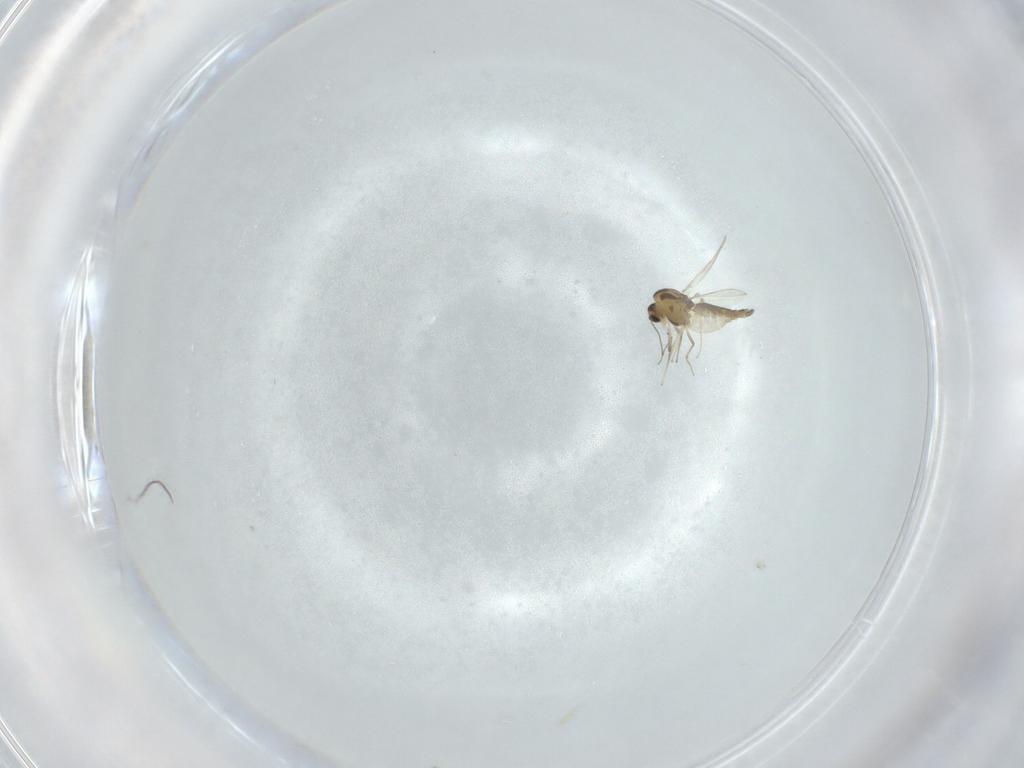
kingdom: Animalia
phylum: Arthropoda
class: Insecta
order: Diptera
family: Chironomidae
